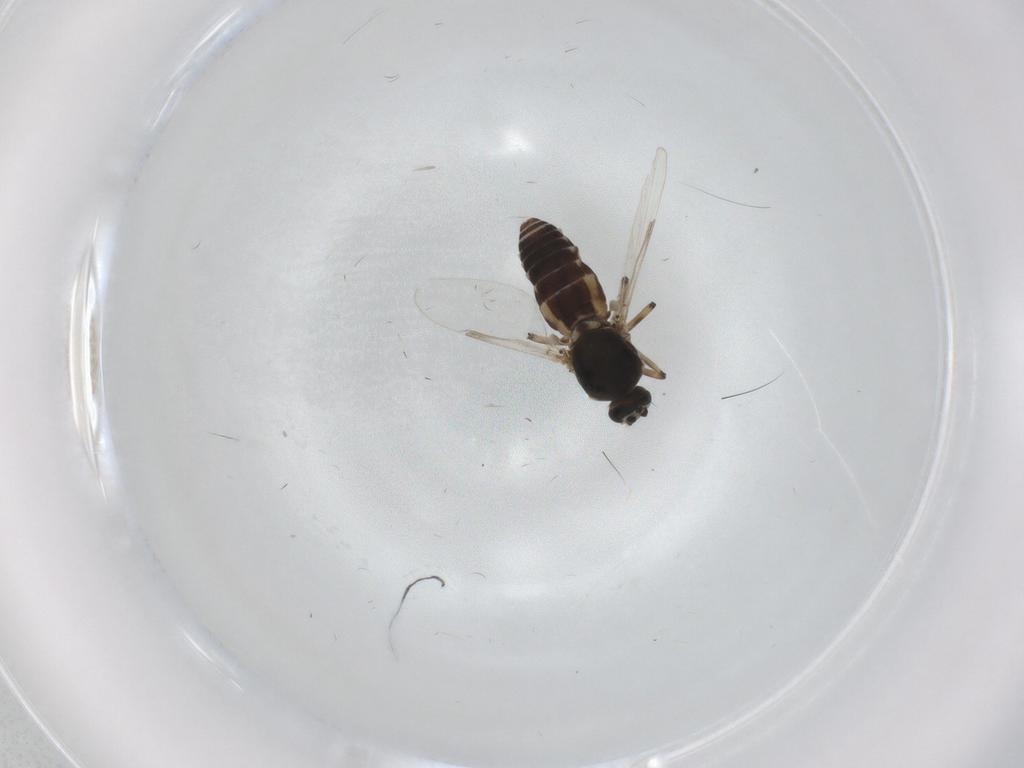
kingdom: Animalia
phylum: Arthropoda
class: Insecta
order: Diptera
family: Ceratopogonidae
